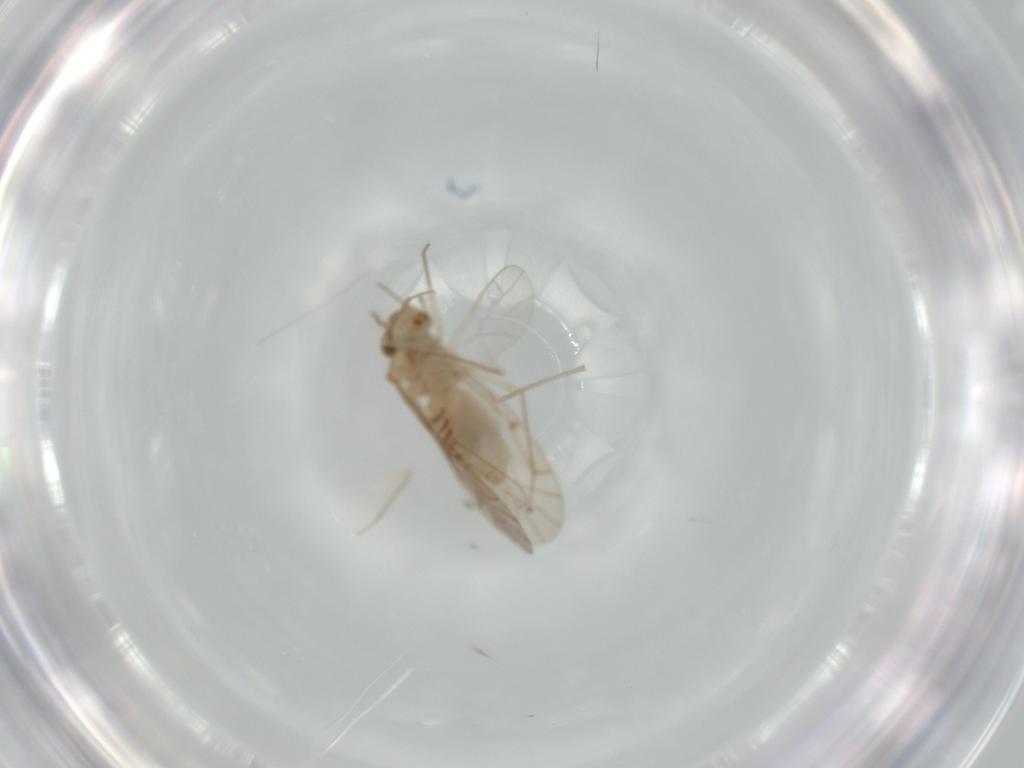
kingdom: Animalia
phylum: Arthropoda
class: Insecta
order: Psocodea
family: Lachesillidae
